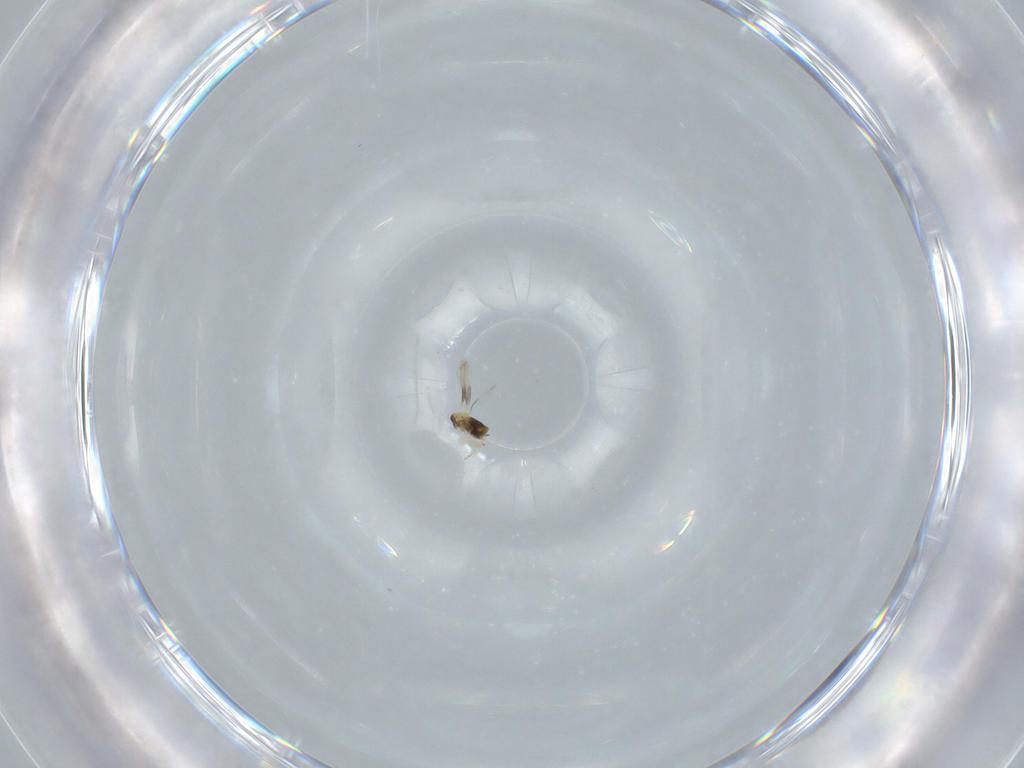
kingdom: Animalia
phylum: Arthropoda
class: Insecta
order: Hymenoptera
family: Aphelinidae
